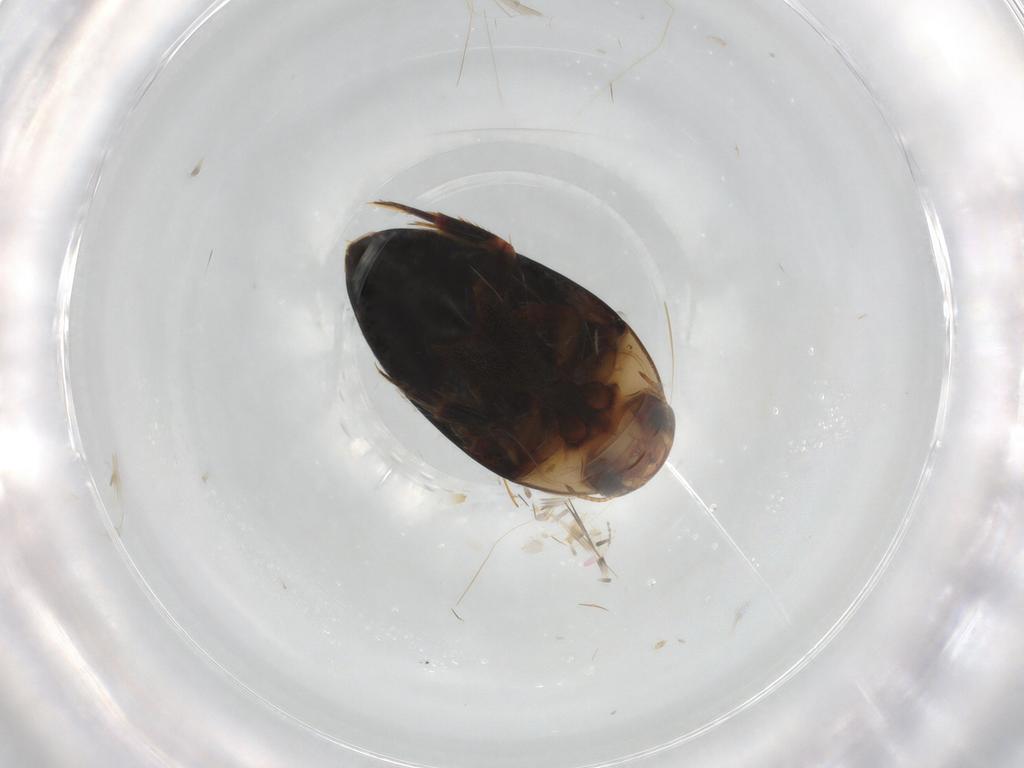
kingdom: Animalia
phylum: Arthropoda
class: Insecta
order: Coleoptera
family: Noteridae
